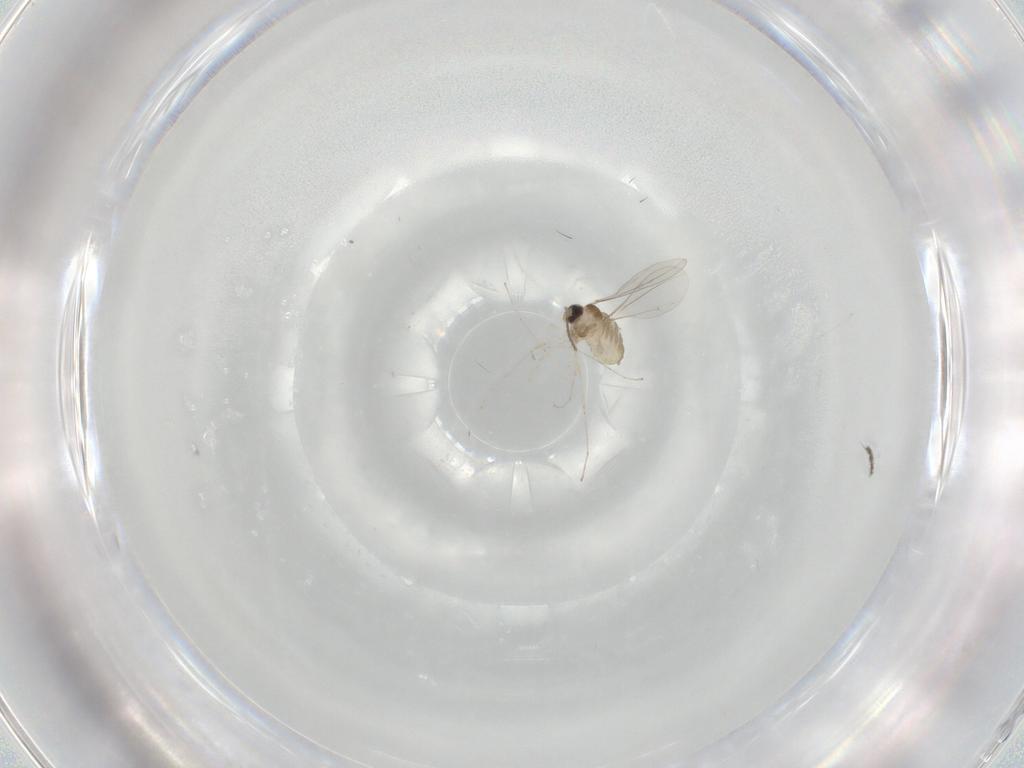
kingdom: Animalia
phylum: Arthropoda
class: Insecta
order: Diptera
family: Cecidomyiidae
